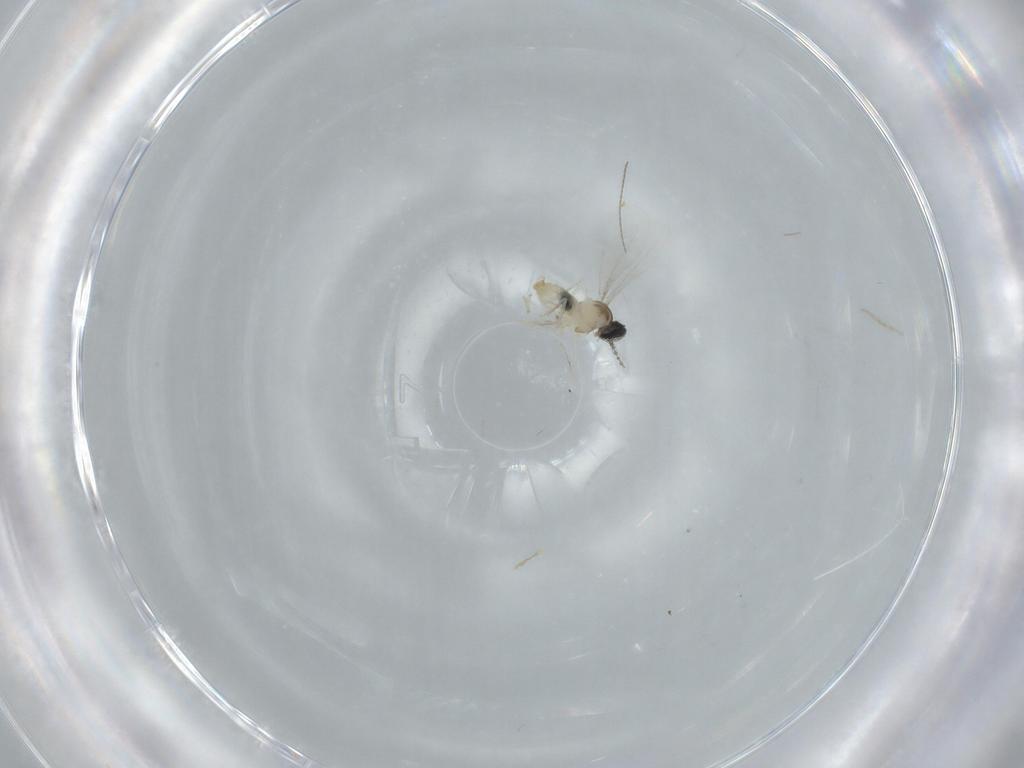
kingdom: Animalia
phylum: Arthropoda
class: Insecta
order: Diptera
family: Cecidomyiidae
